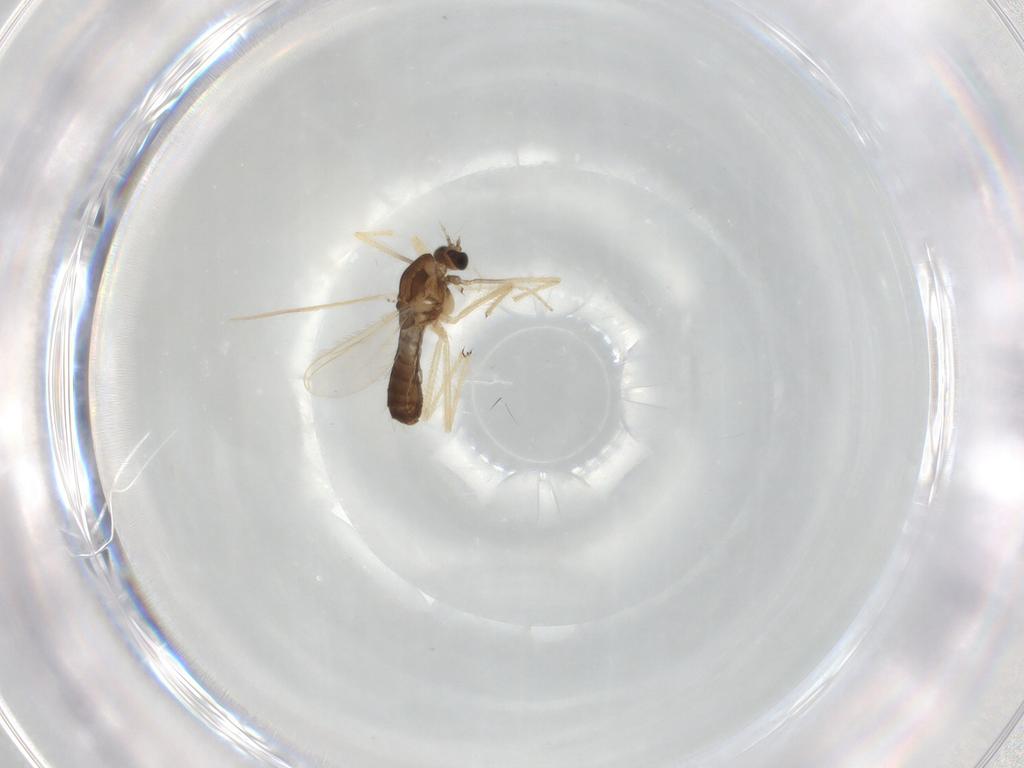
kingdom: Animalia
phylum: Arthropoda
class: Insecta
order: Diptera
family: Chironomidae
